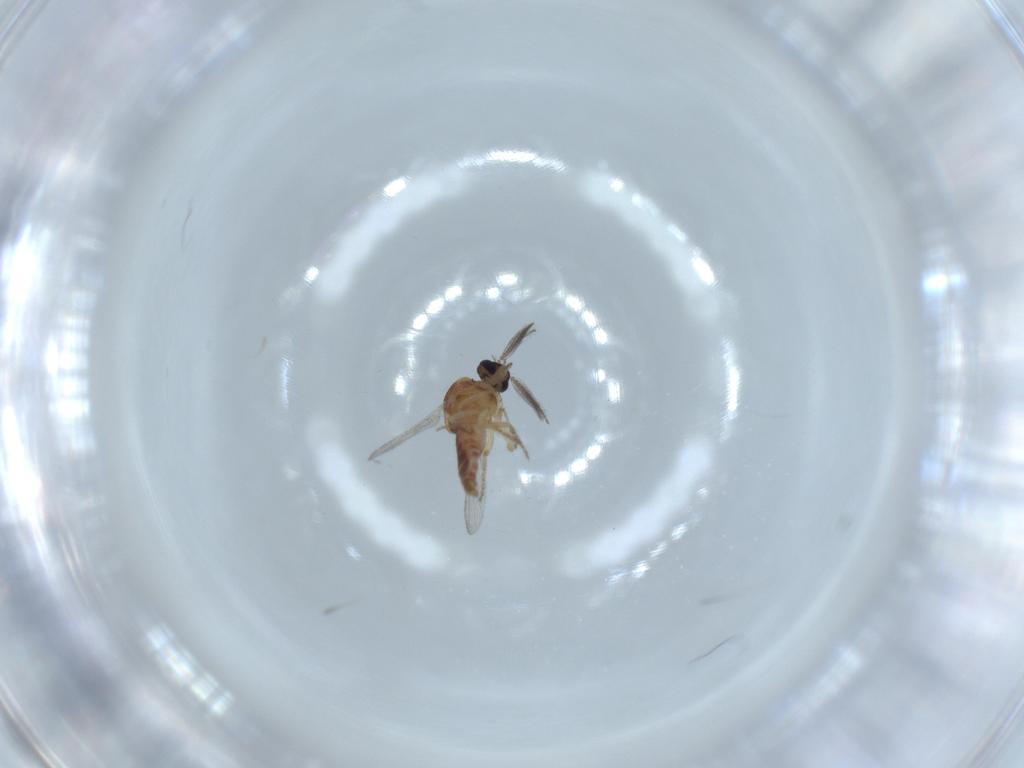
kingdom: Animalia
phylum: Arthropoda
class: Insecta
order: Diptera
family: Ceratopogonidae
